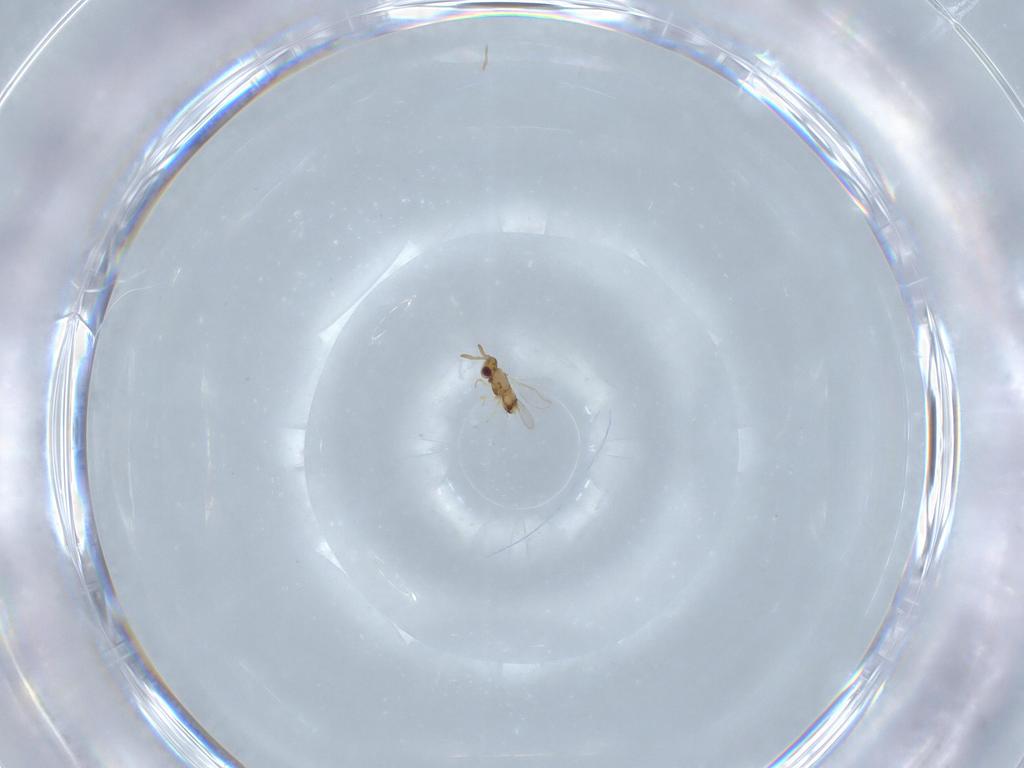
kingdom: Animalia
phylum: Arthropoda
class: Insecta
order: Hymenoptera
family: Aphelinidae
